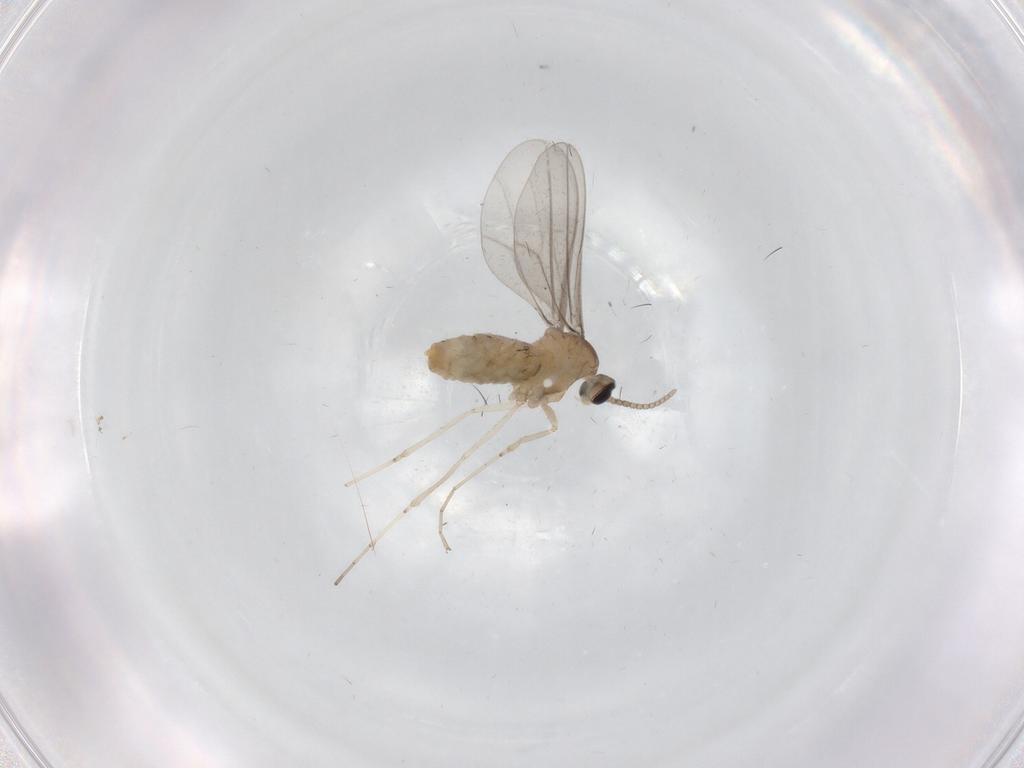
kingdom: Animalia
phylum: Arthropoda
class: Insecta
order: Diptera
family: Cecidomyiidae
